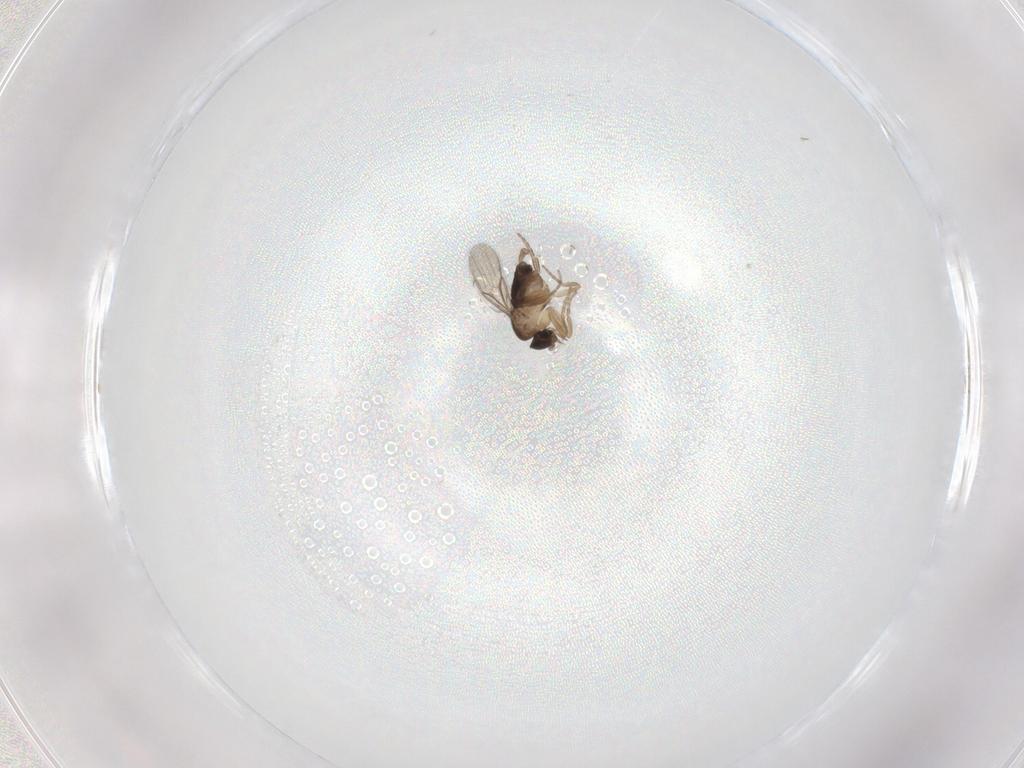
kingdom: Animalia
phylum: Arthropoda
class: Insecta
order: Diptera
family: Phoridae
